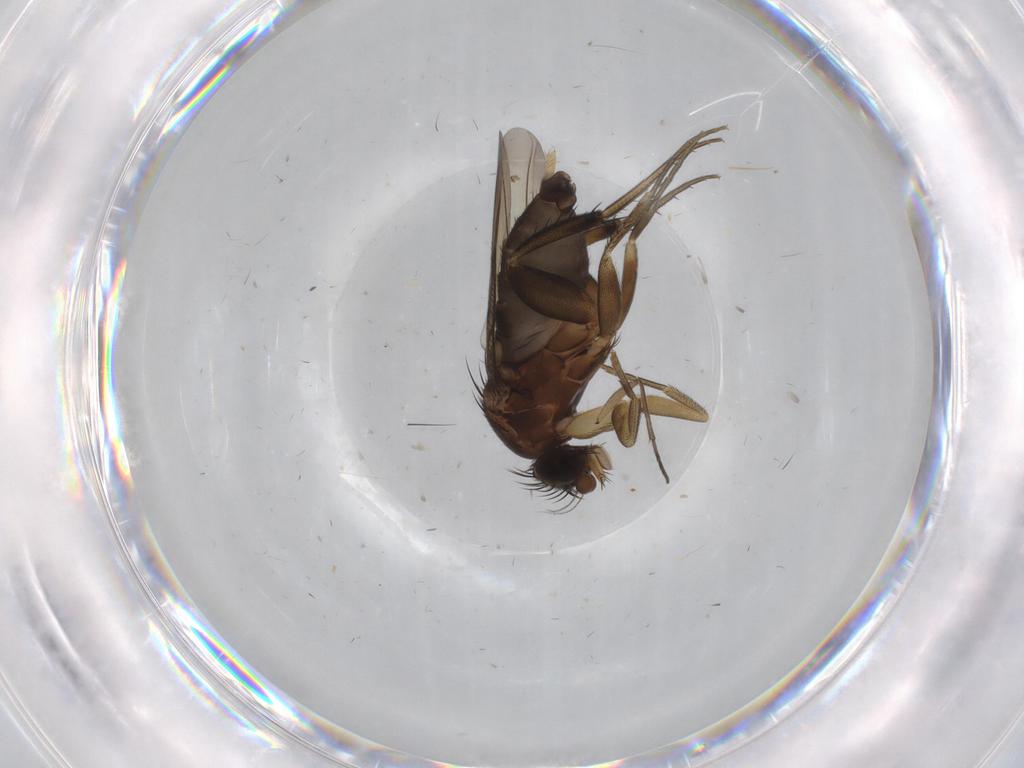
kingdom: Animalia
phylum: Arthropoda
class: Insecta
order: Diptera
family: Phoridae
